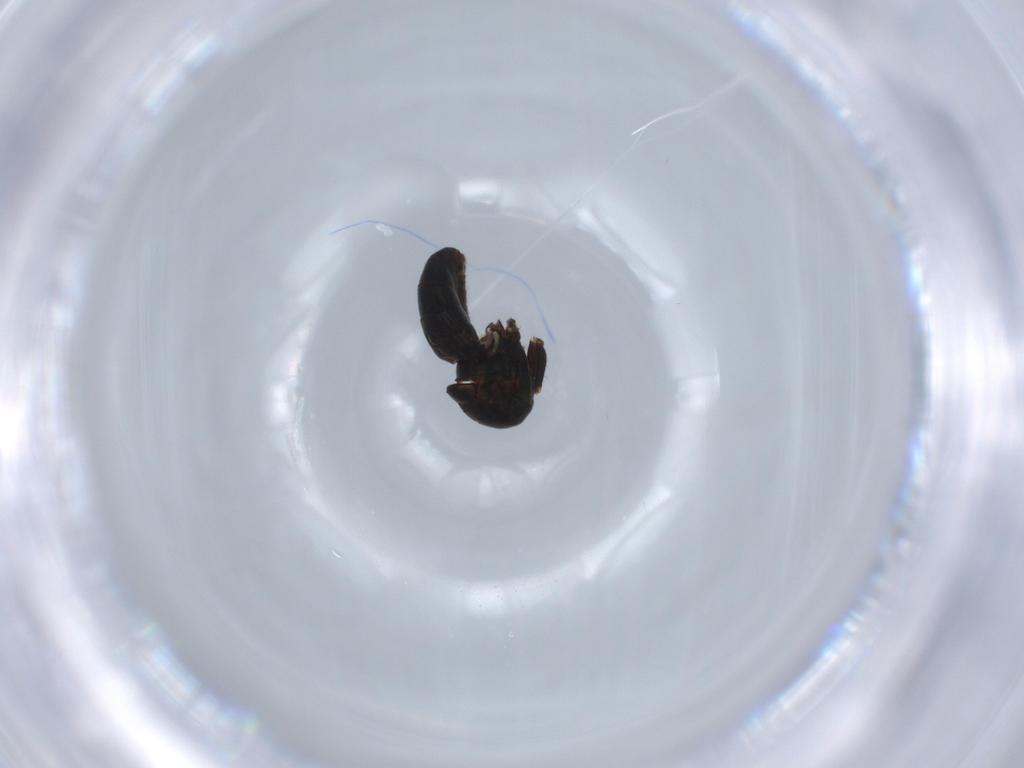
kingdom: Animalia
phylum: Arthropoda
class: Insecta
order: Diptera
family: Ephydridae
